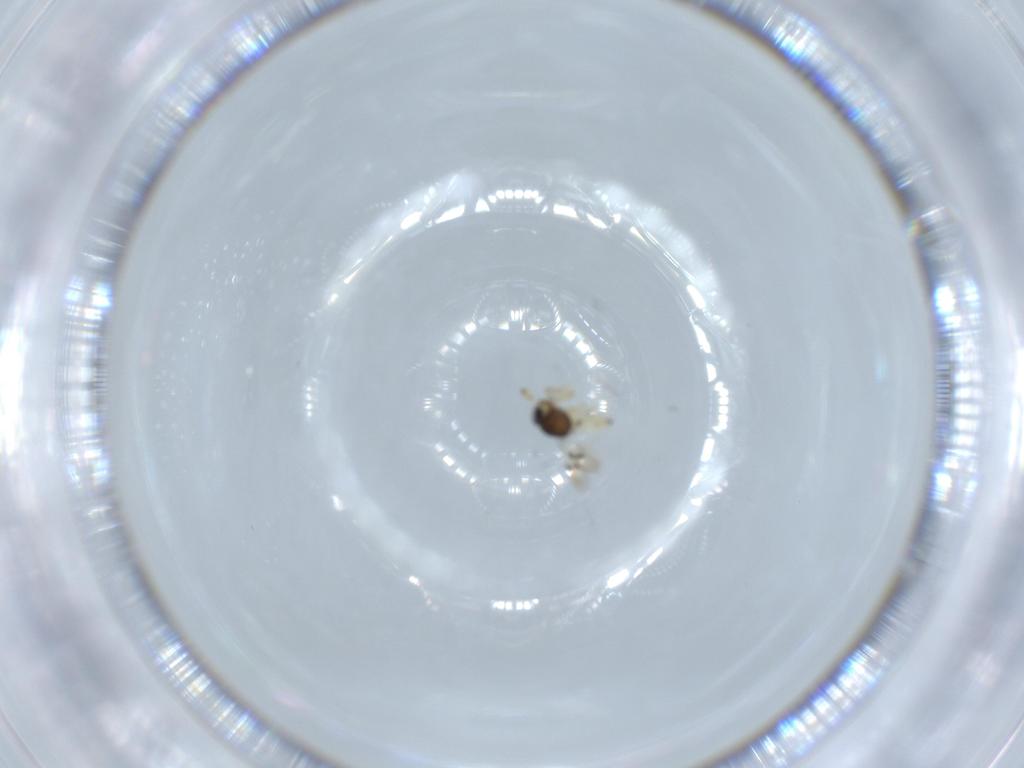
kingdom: Animalia
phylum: Arthropoda
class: Insecta
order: Hymenoptera
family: Scelionidae
